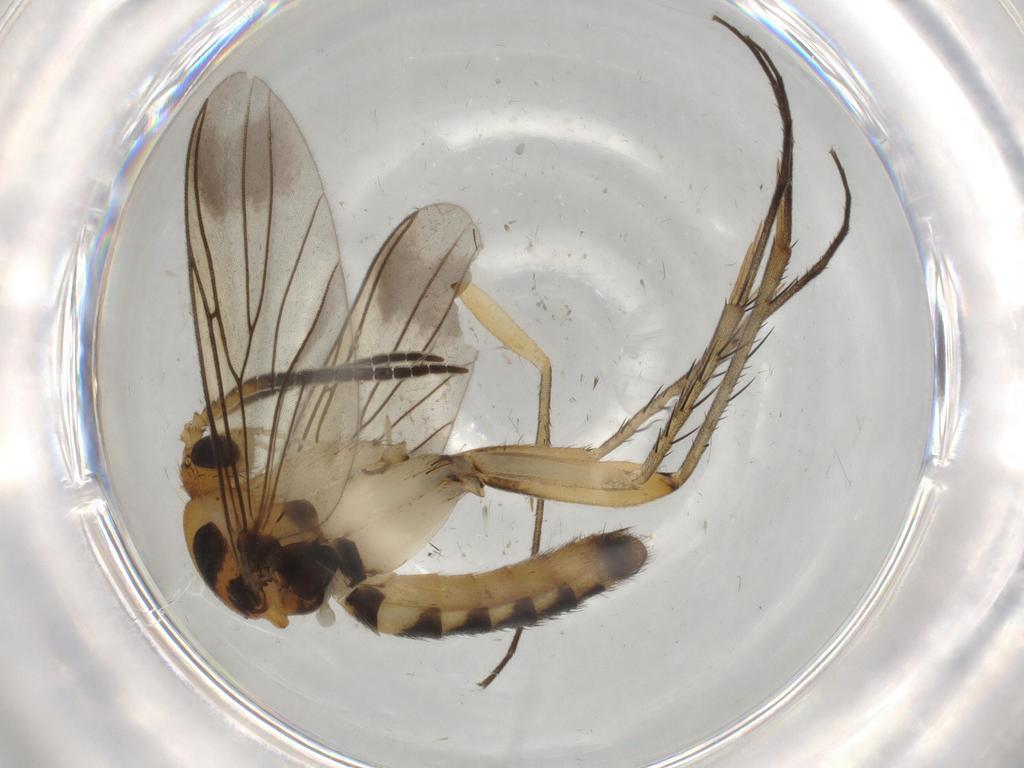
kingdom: Animalia
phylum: Arthropoda
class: Insecta
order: Diptera
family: Mycetophilidae
